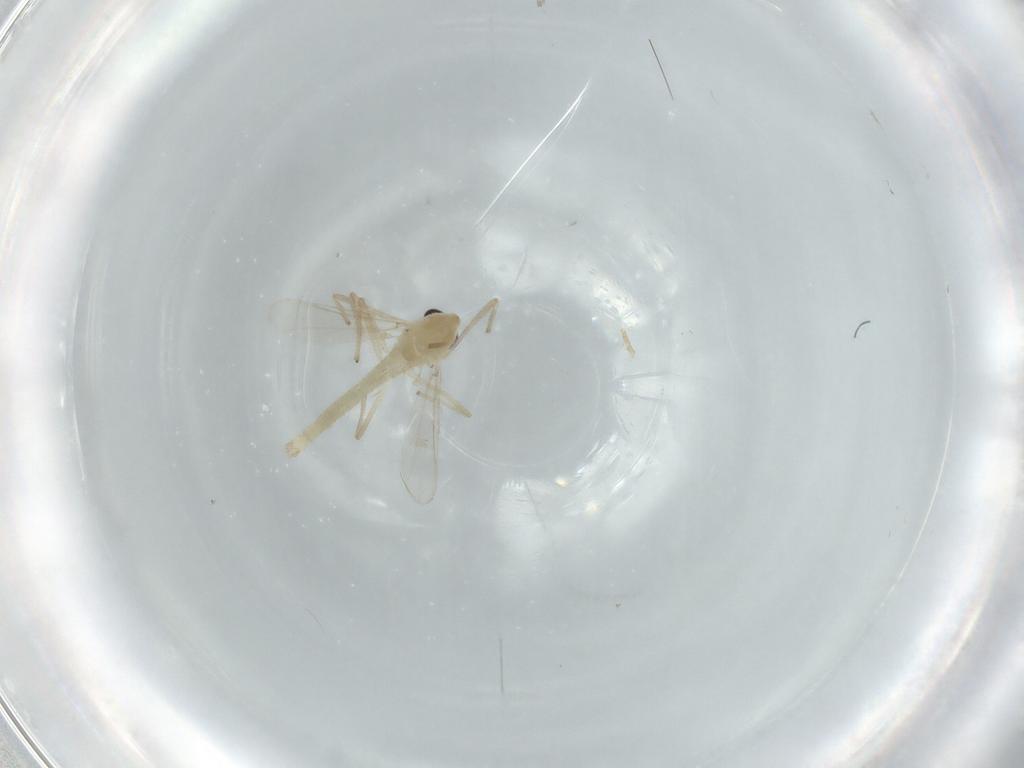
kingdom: Animalia
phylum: Arthropoda
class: Insecta
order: Diptera
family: Chironomidae
